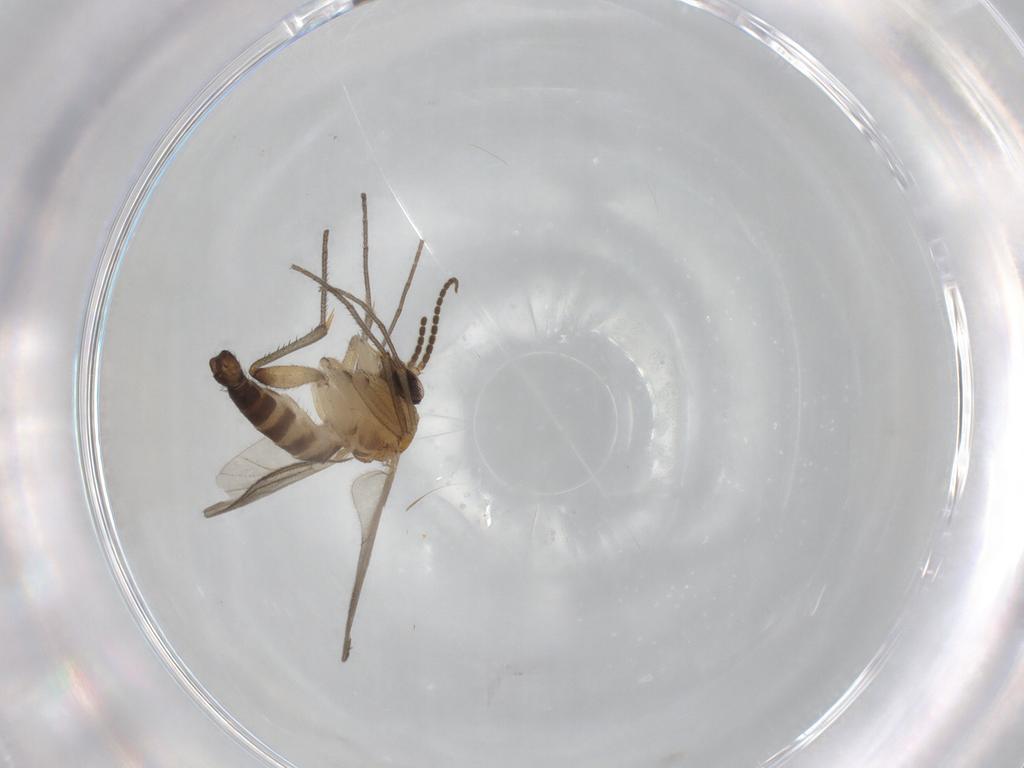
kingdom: Animalia
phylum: Arthropoda
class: Insecta
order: Diptera
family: Mycetophilidae
